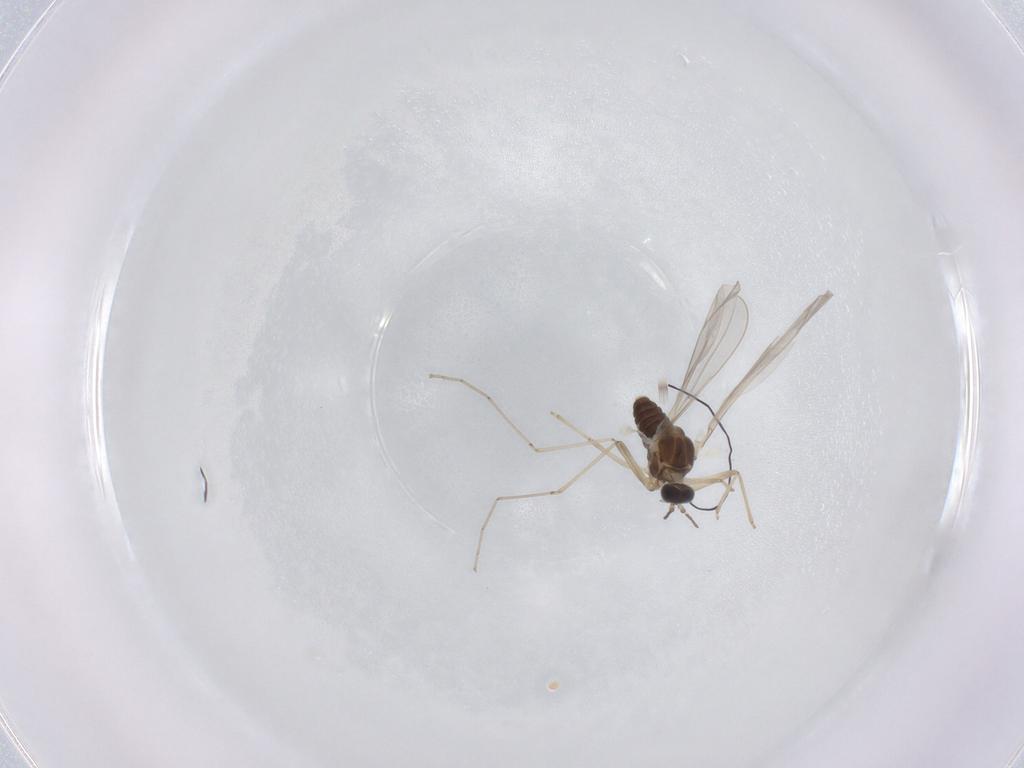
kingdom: Animalia
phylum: Arthropoda
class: Insecta
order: Diptera
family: Cecidomyiidae
